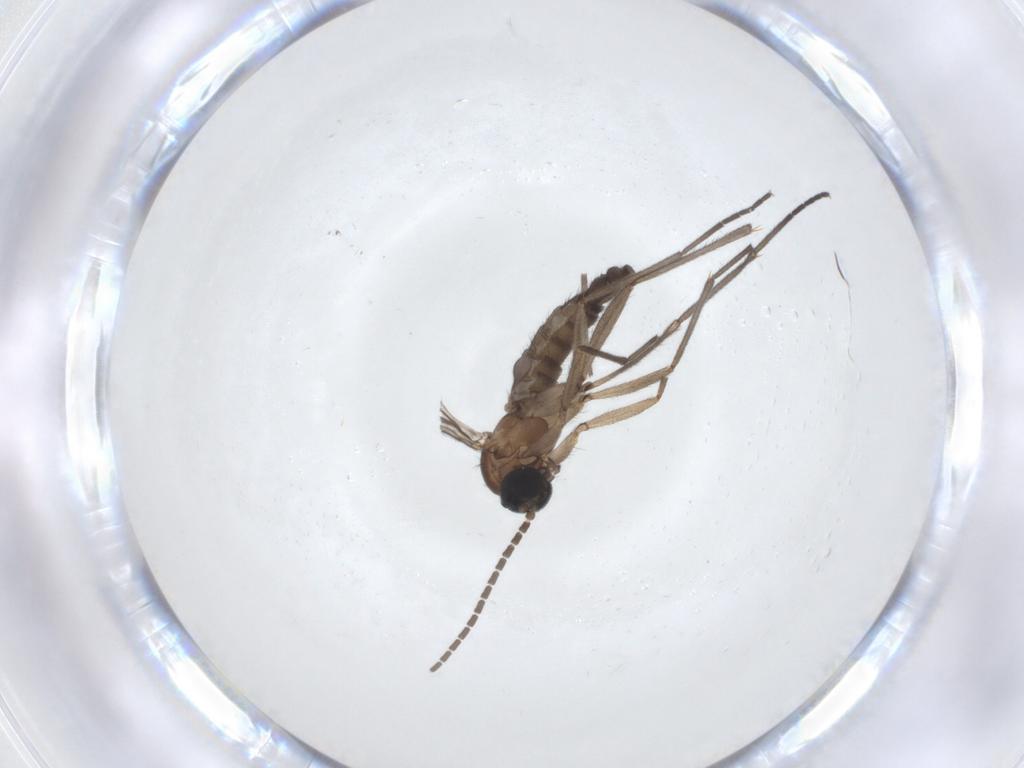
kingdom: Animalia
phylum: Arthropoda
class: Insecta
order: Diptera
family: Sciaridae
